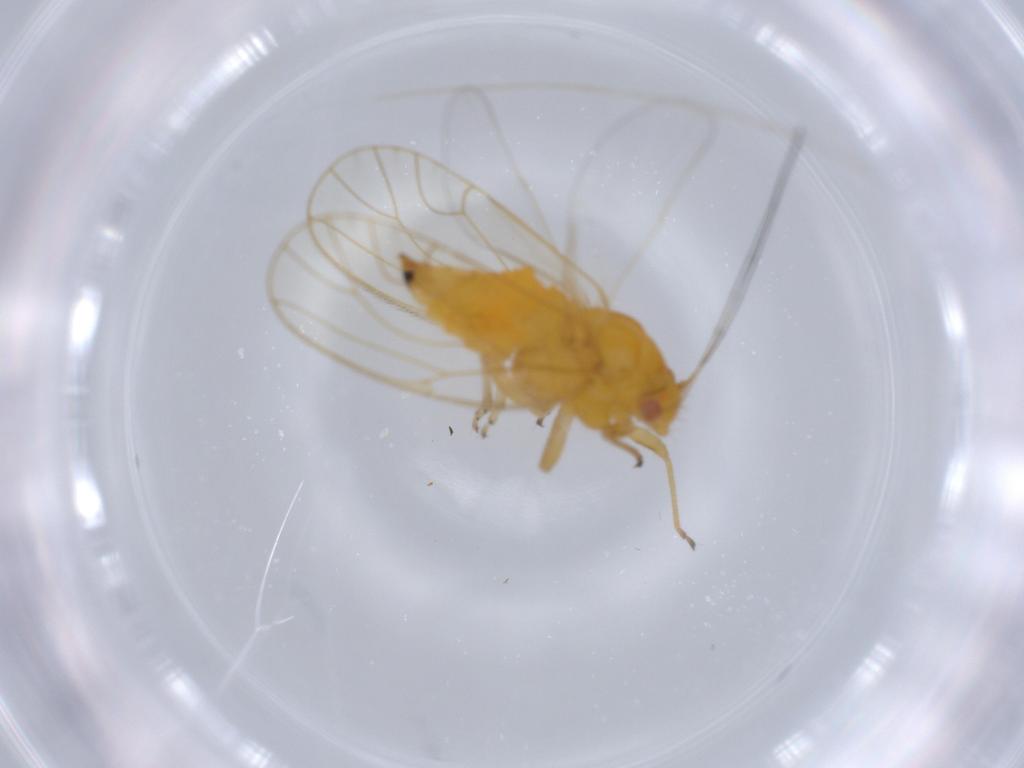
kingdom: Animalia
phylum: Arthropoda
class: Insecta
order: Hemiptera
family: Psyllidae
